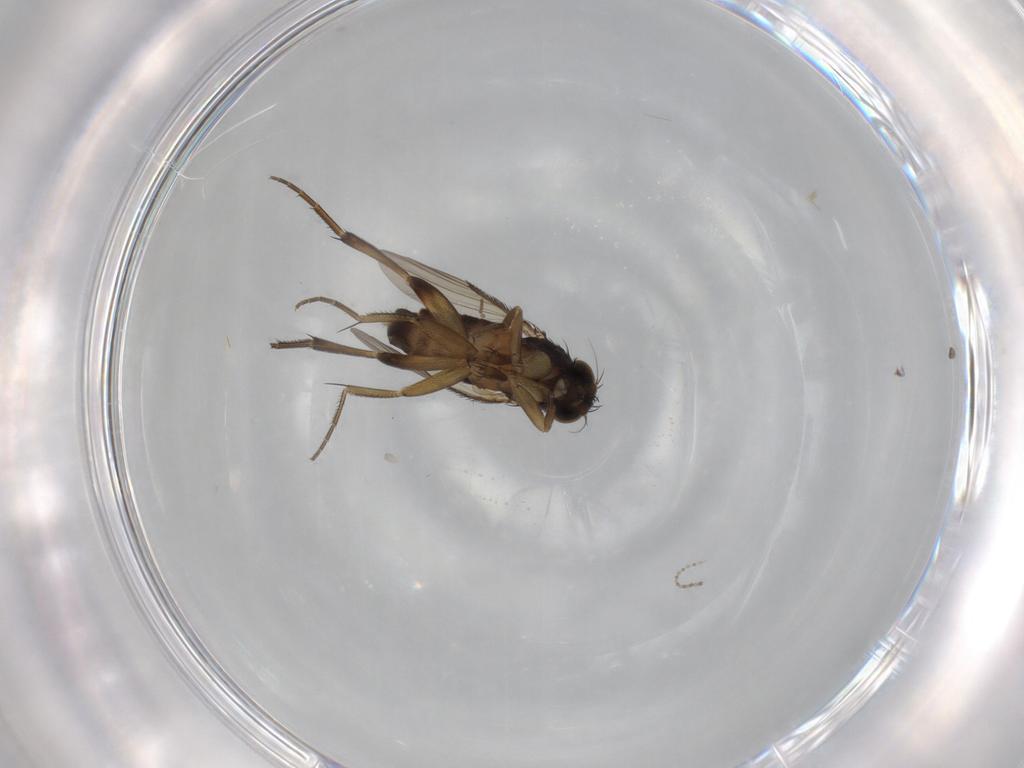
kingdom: Animalia
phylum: Arthropoda
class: Insecta
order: Diptera
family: Phoridae
